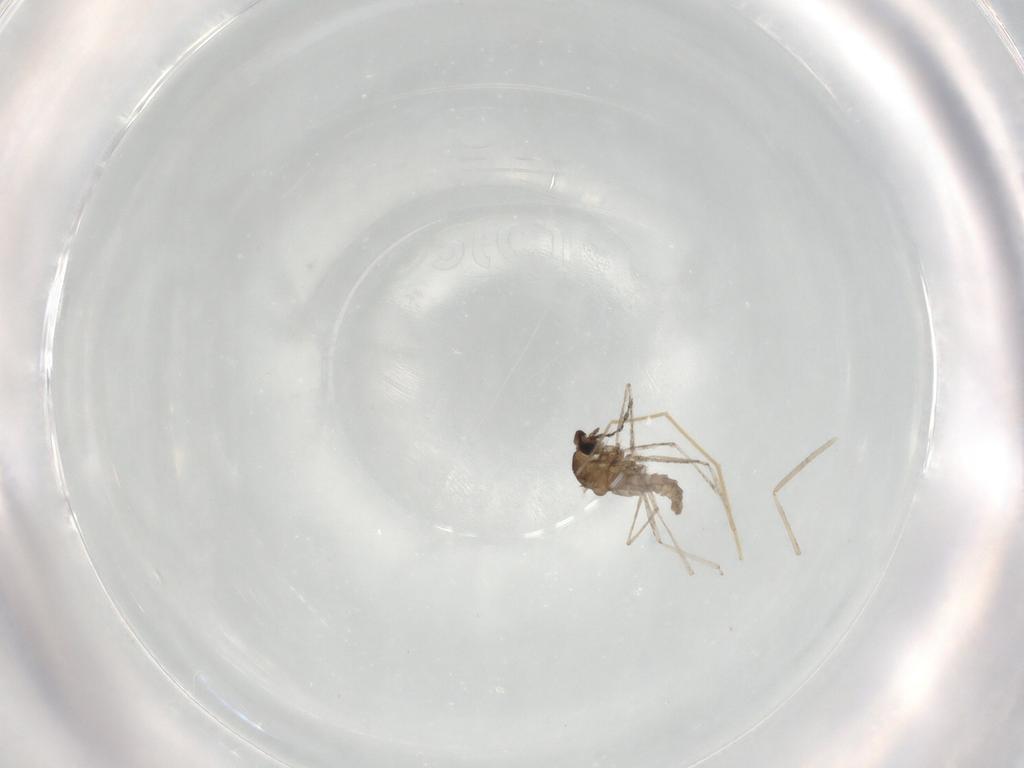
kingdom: Animalia
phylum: Arthropoda
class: Insecta
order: Diptera
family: Cecidomyiidae
